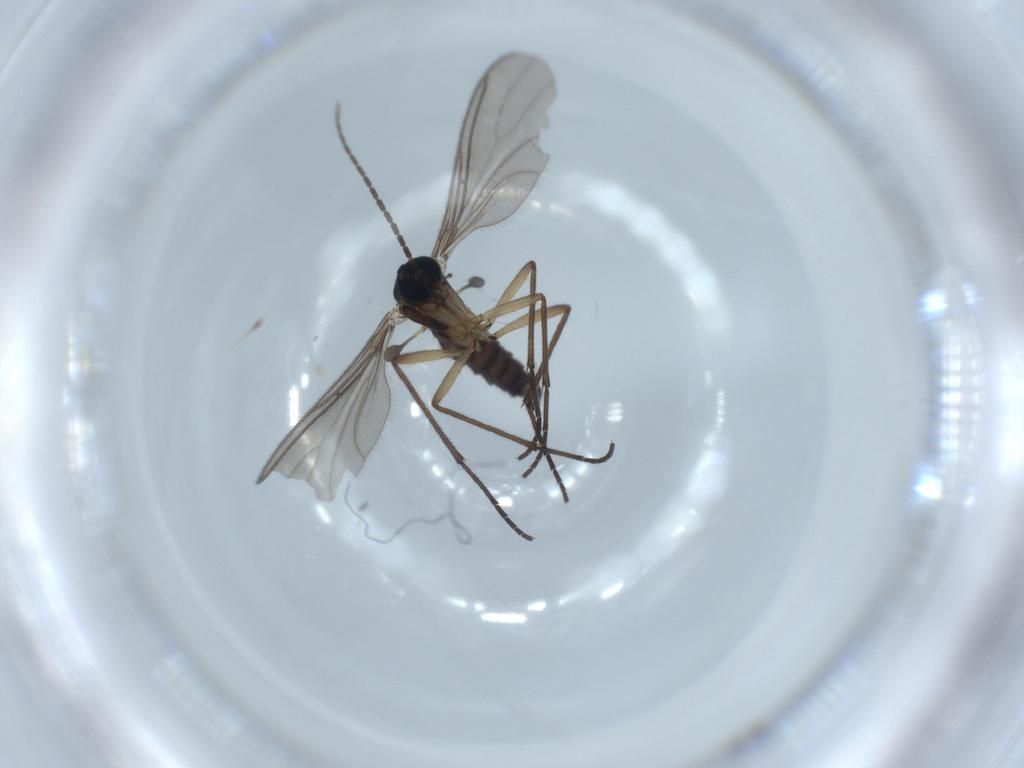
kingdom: Animalia
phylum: Arthropoda
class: Insecta
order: Diptera
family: Sciaridae
